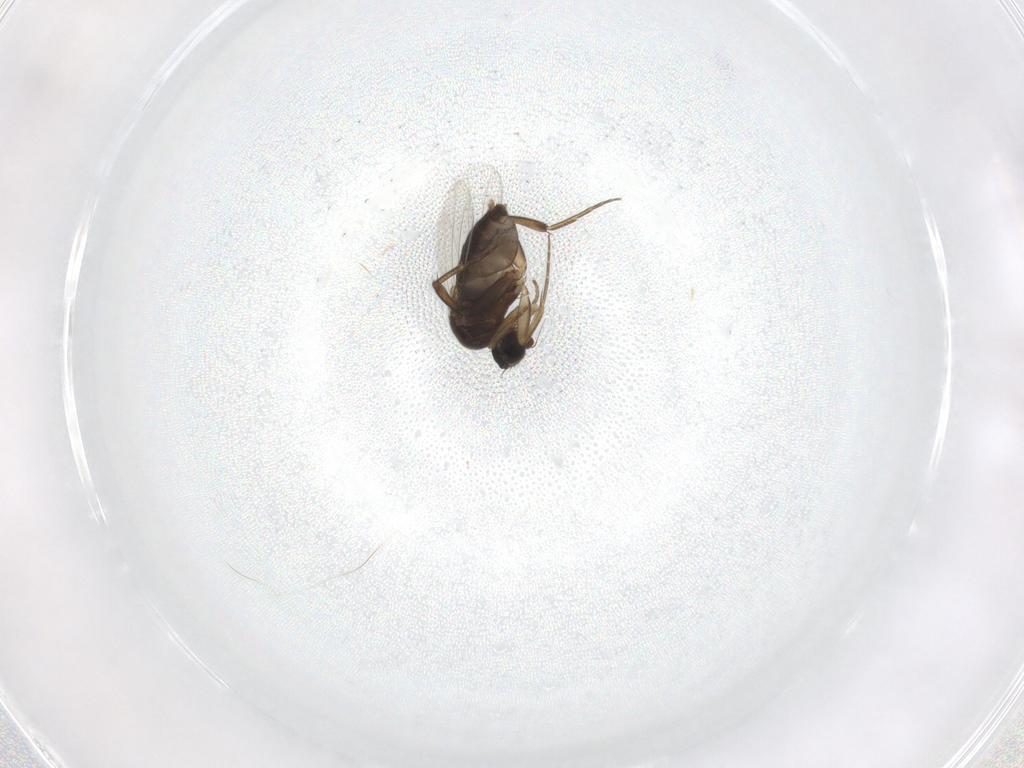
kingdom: Animalia
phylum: Arthropoda
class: Insecta
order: Diptera
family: Phoridae
